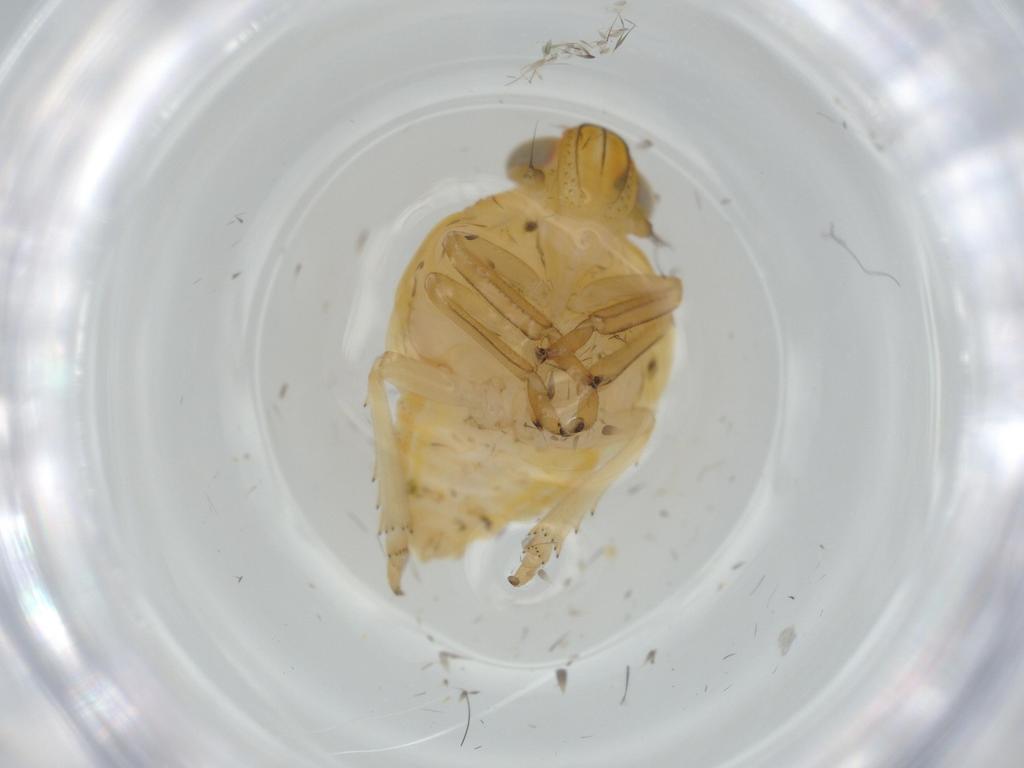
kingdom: Animalia
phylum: Arthropoda
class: Insecta
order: Hemiptera
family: Issidae
